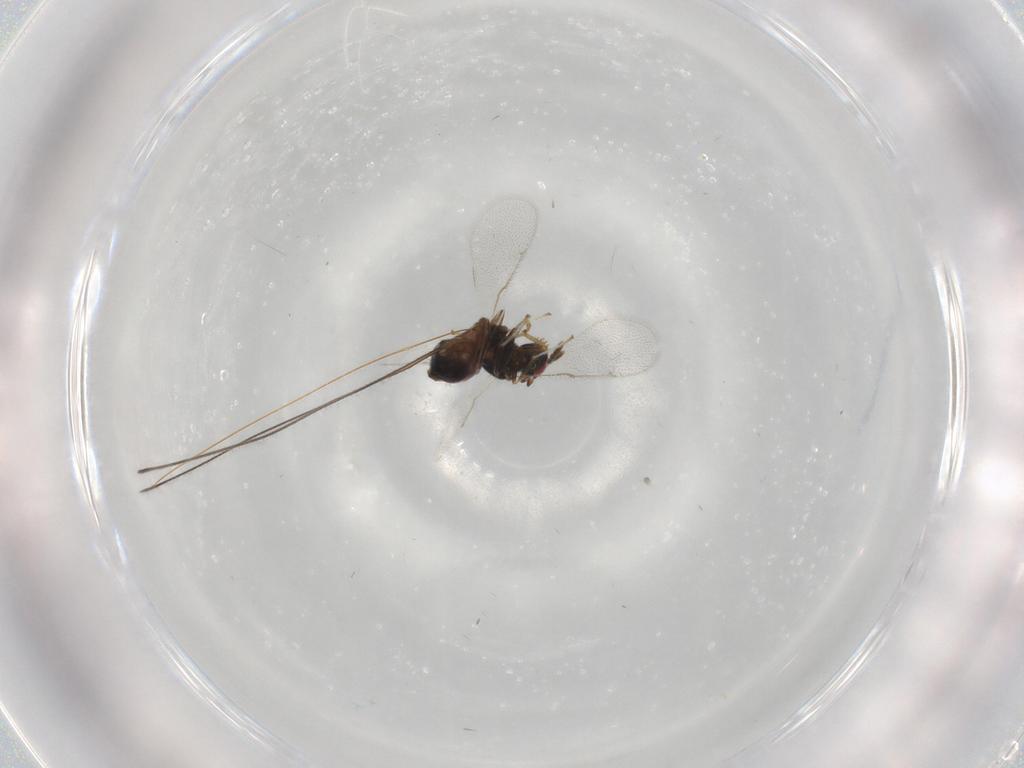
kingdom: Animalia
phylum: Arthropoda
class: Insecta
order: Hymenoptera
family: Torymidae
